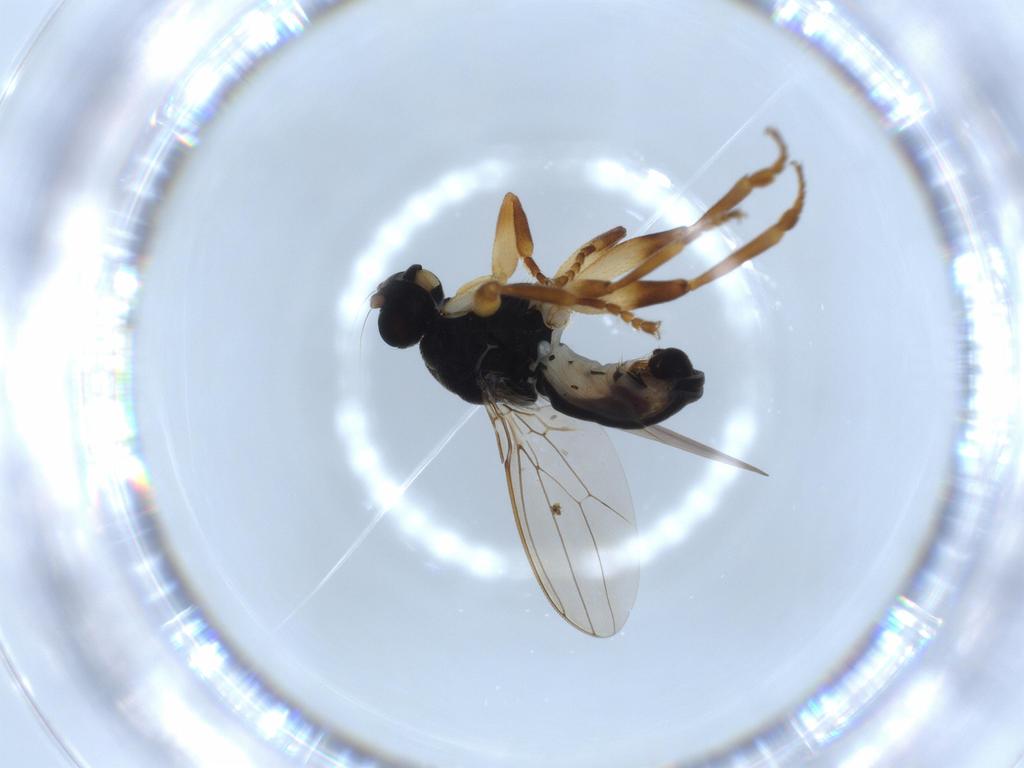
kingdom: Animalia
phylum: Arthropoda
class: Insecta
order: Diptera
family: Sphaeroceridae
